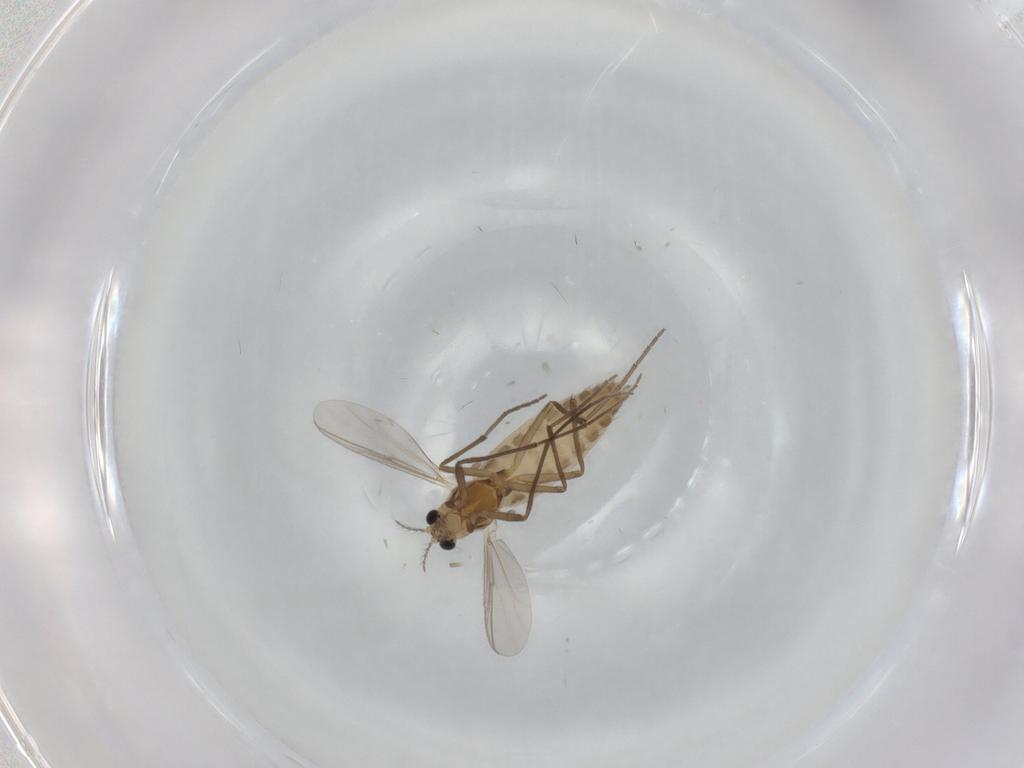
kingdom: Animalia
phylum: Arthropoda
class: Insecta
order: Diptera
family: Chironomidae
